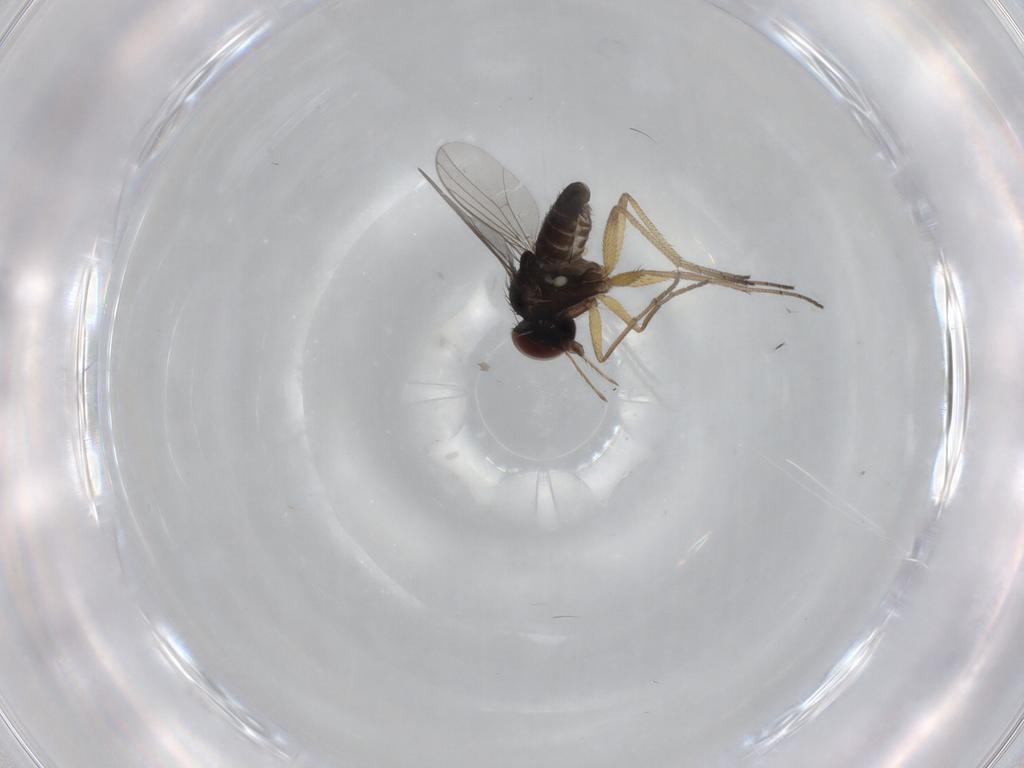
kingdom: Animalia
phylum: Arthropoda
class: Insecta
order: Diptera
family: Dolichopodidae
